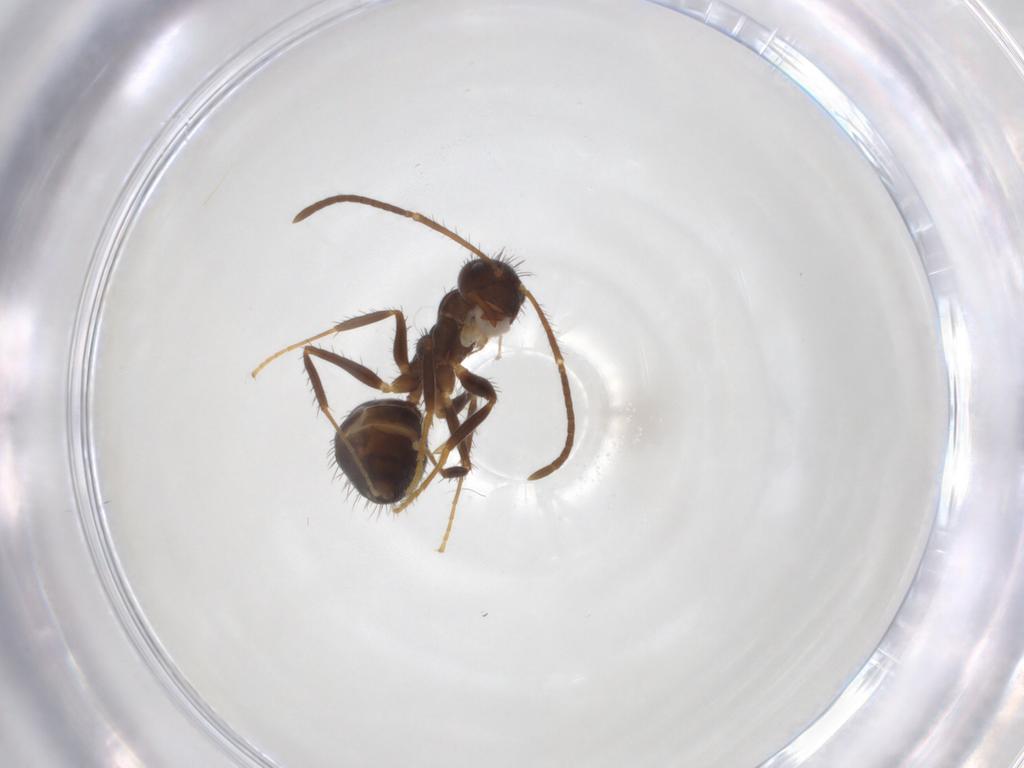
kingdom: Animalia
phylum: Arthropoda
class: Insecta
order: Hymenoptera
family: Formicidae
